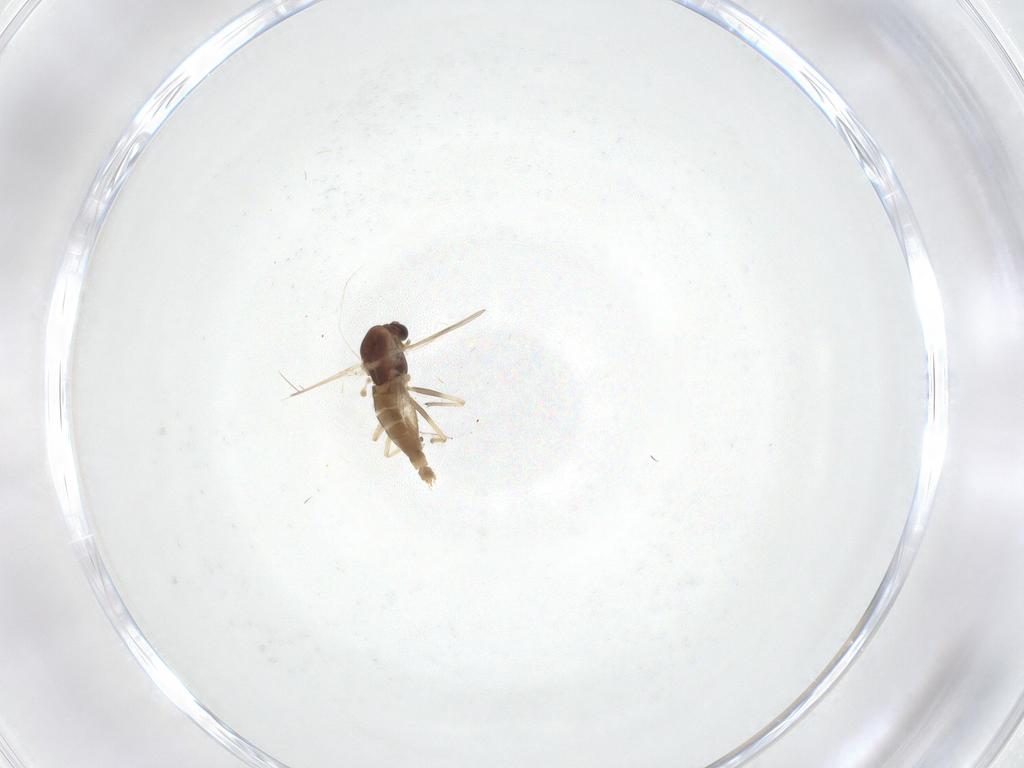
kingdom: Animalia
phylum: Arthropoda
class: Insecta
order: Diptera
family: Chironomidae
